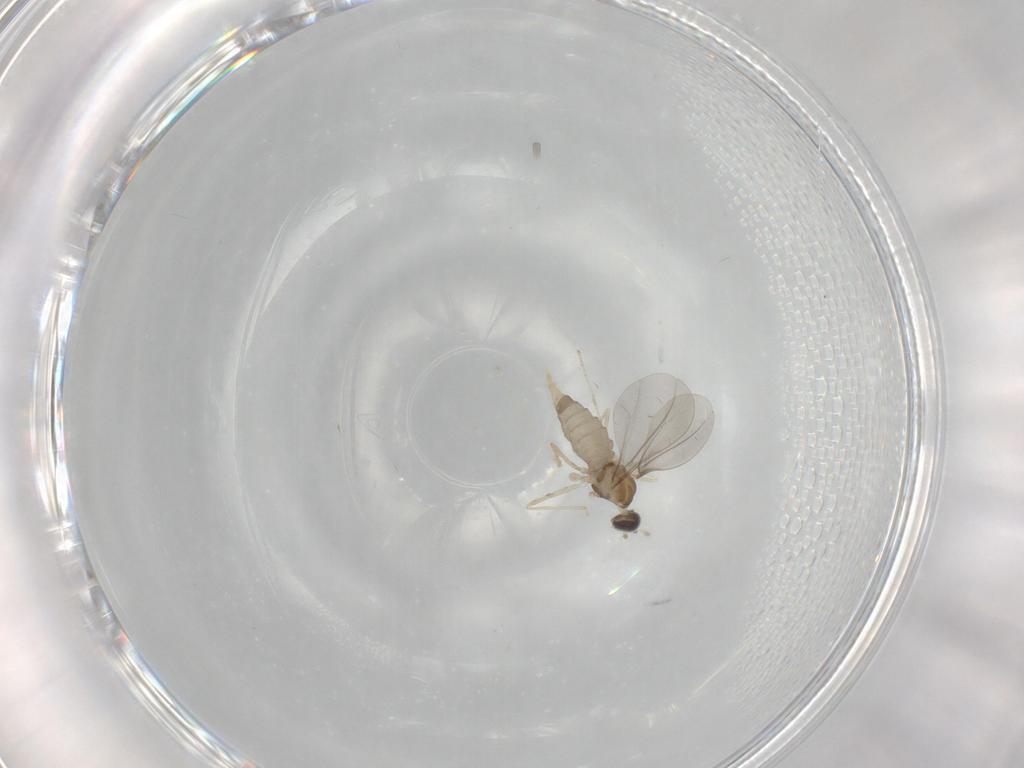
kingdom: Animalia
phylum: Arthropoda
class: Insecta
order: Diptera
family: Cecidomyiidae
